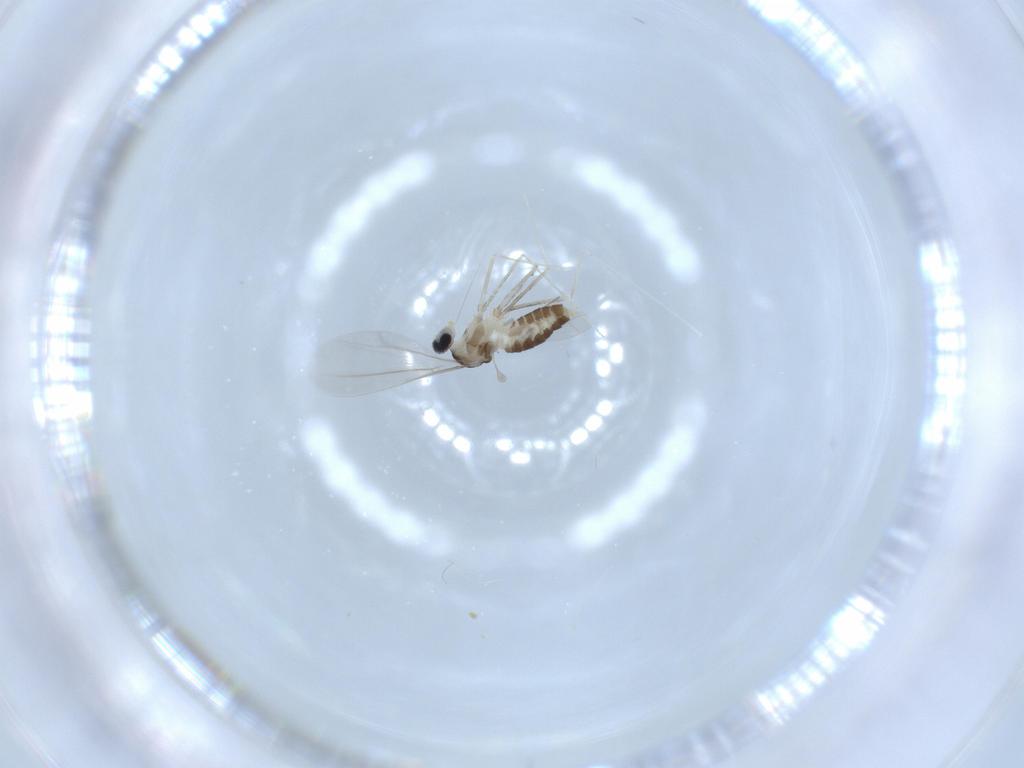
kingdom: Animalia
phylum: Arthropoda
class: Insecta
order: Diptera
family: Cecidomyiidae
